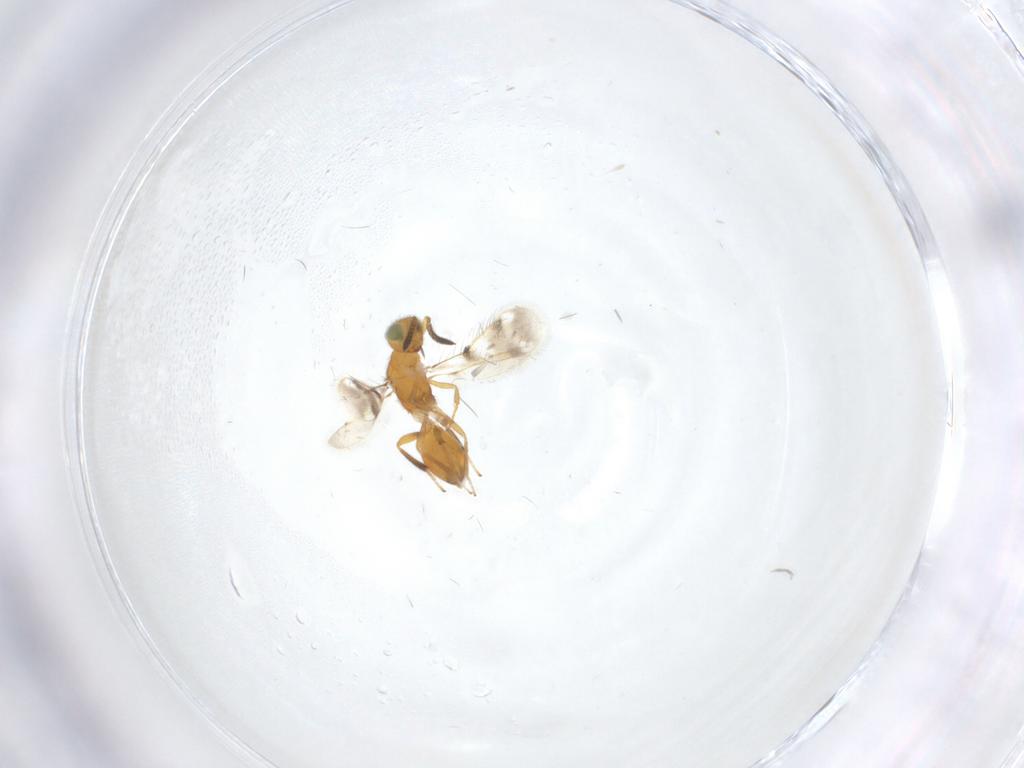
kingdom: Animalia
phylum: Arthropoda
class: Insecta
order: Hymenoptera
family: Pteromalidae
